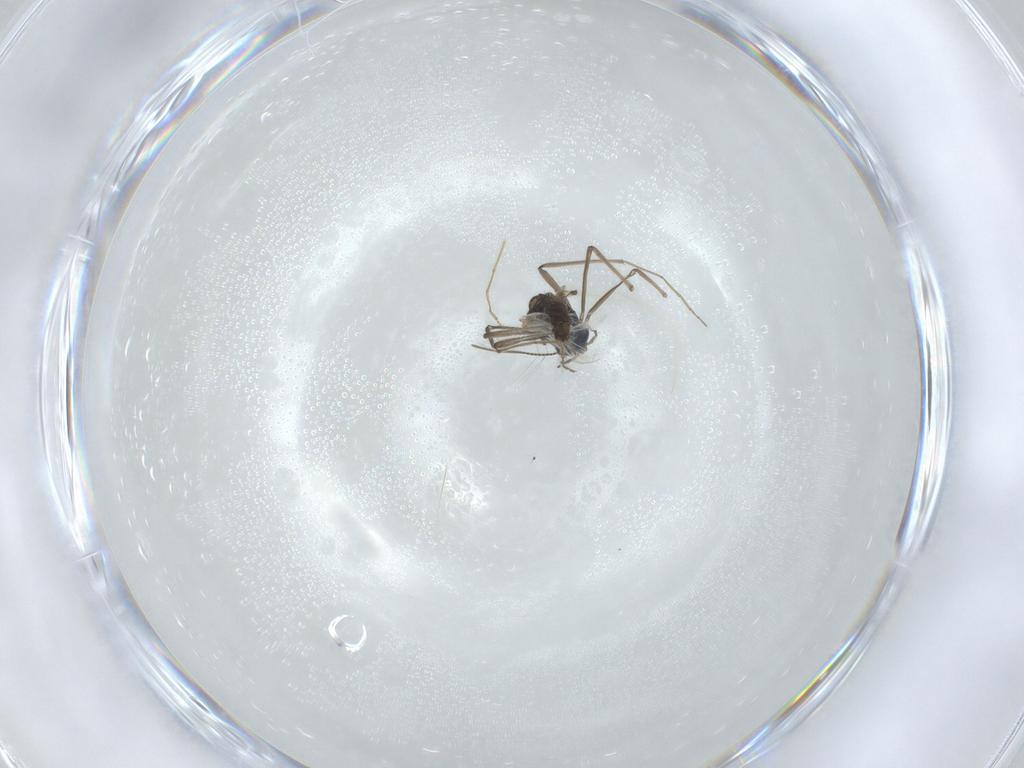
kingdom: Animalia
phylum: Arthropoda
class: Insecta
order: Diptera
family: Chironomidae
